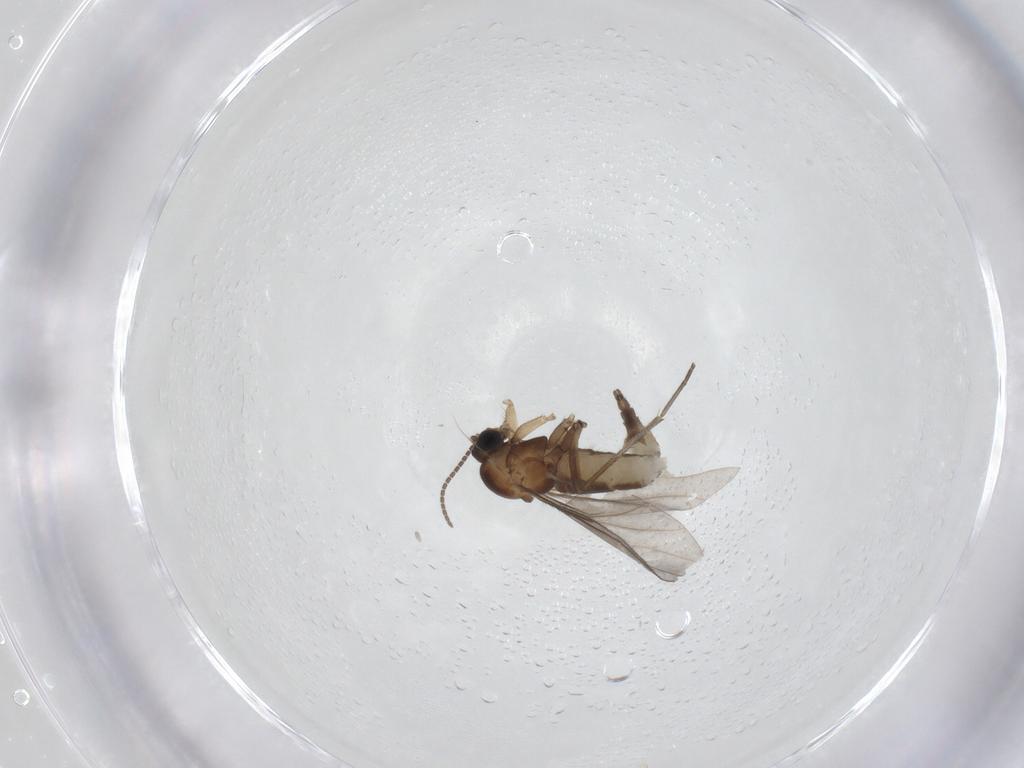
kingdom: Animalia
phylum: Arthropoda
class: Insecta
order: Diptera
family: Sciaridae
